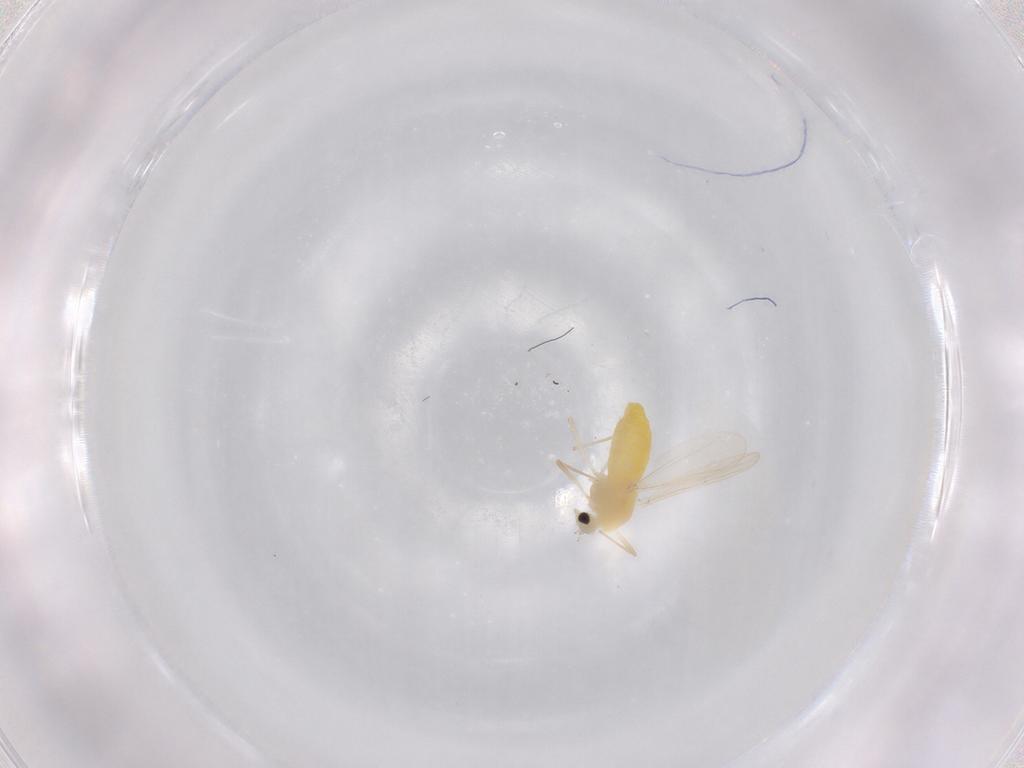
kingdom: Animalia
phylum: Arthropoda
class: Insecta
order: Diptera
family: Chironomidae
